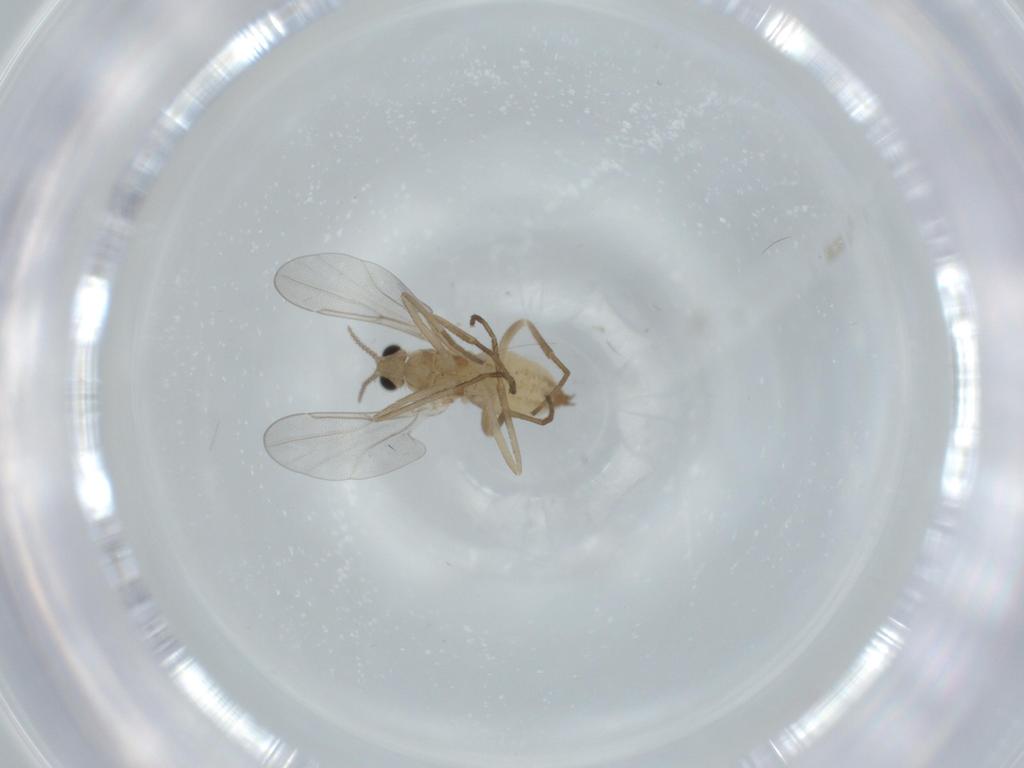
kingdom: Animalia
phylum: Arthropoda
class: Insecta
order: Diptera
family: Cecidomyiidae
